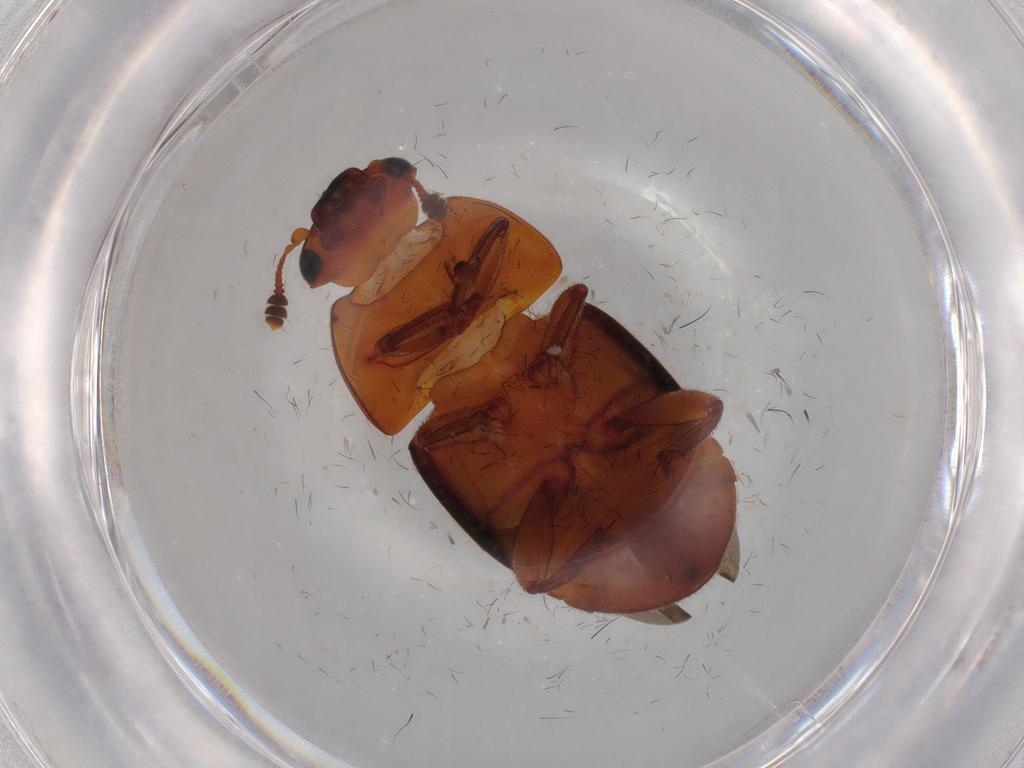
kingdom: Animalia
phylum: Arthropoda
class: Insecta
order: Coleoptera
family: Nitidulidae
